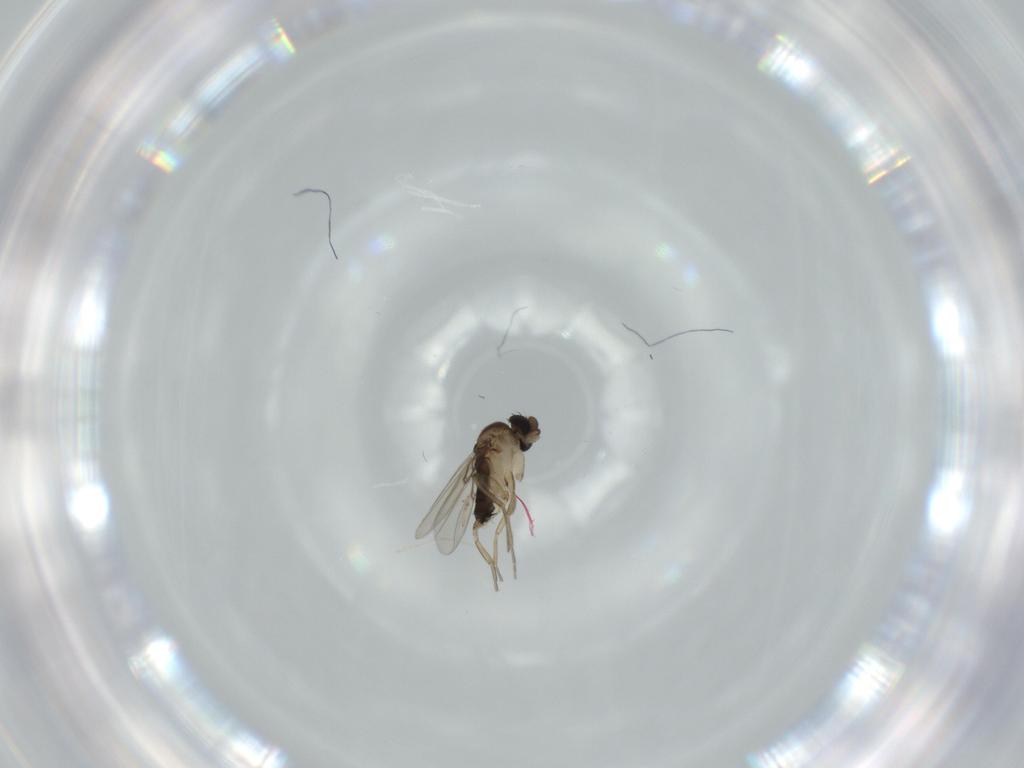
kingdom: Animalia
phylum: Arthropoda
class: Insecta
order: Diptera
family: Phoridae
